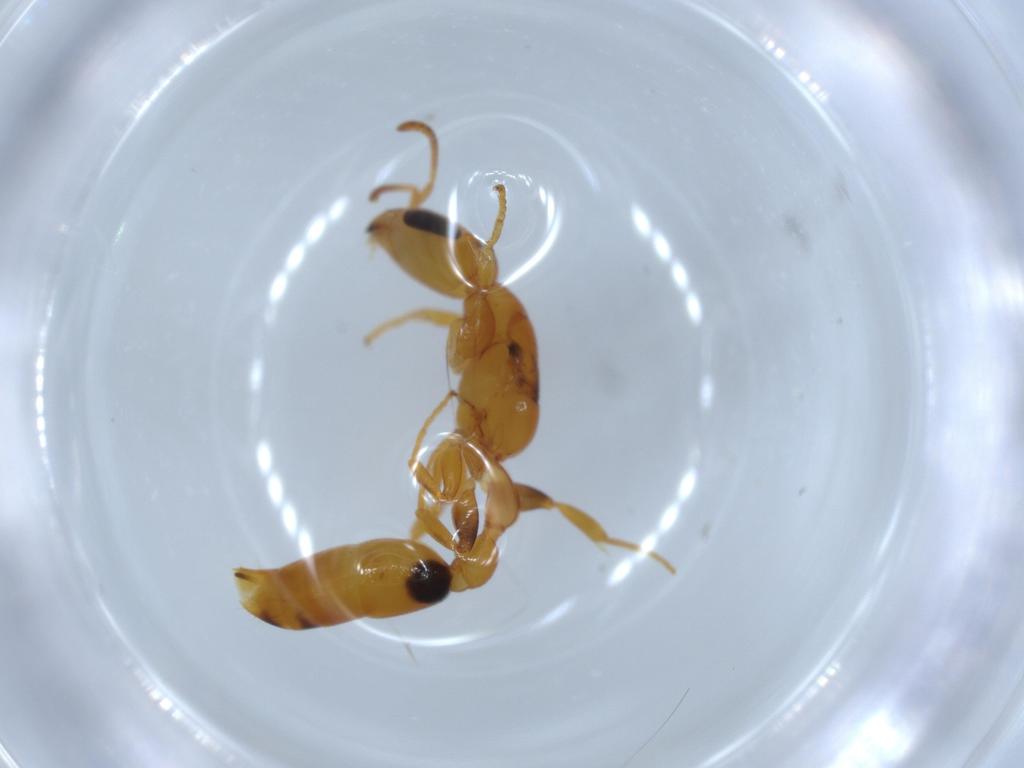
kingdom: Animalia
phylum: Arthropoda
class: Insecta
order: Hymenoptera
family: Formicidae
